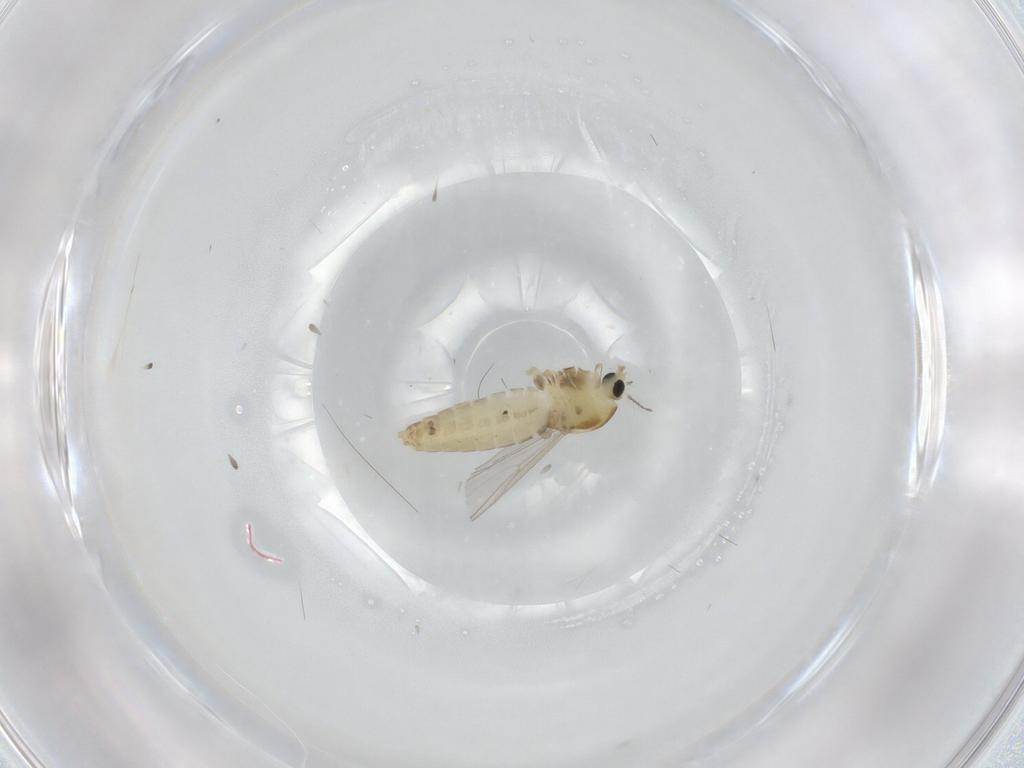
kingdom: Animalia
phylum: Arthropoda
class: Insecta
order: Diptera
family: Chironomidae
